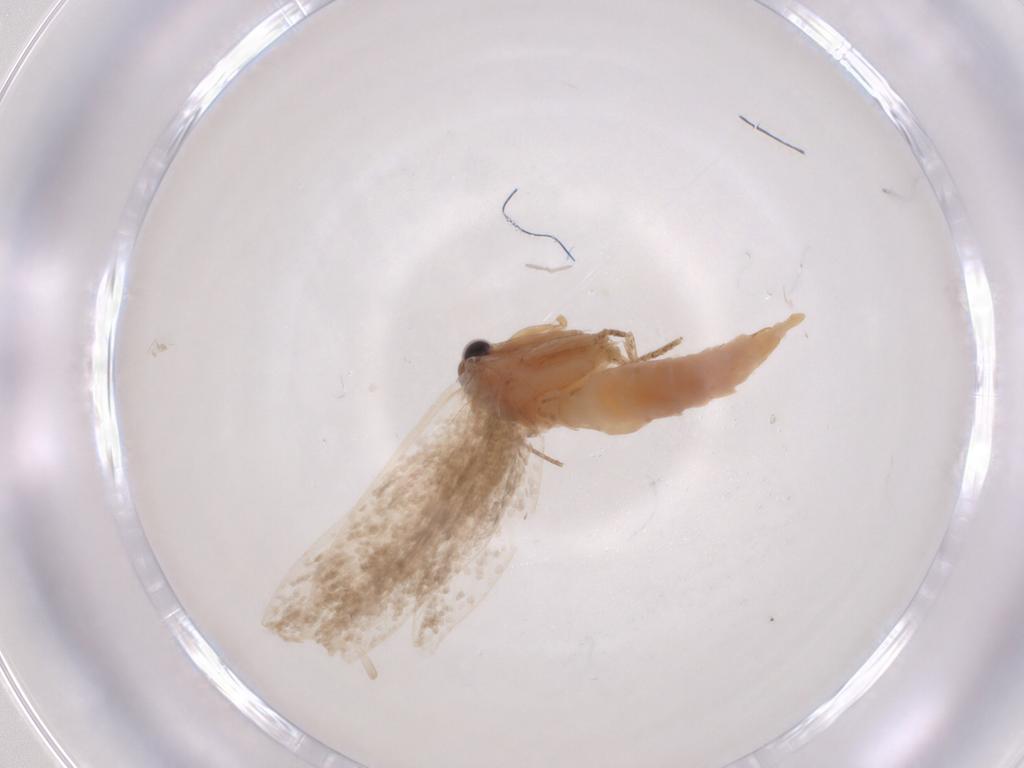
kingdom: Animalia
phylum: Arthropoda
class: Insecta
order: Lepidoptera
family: Nepticulidae
